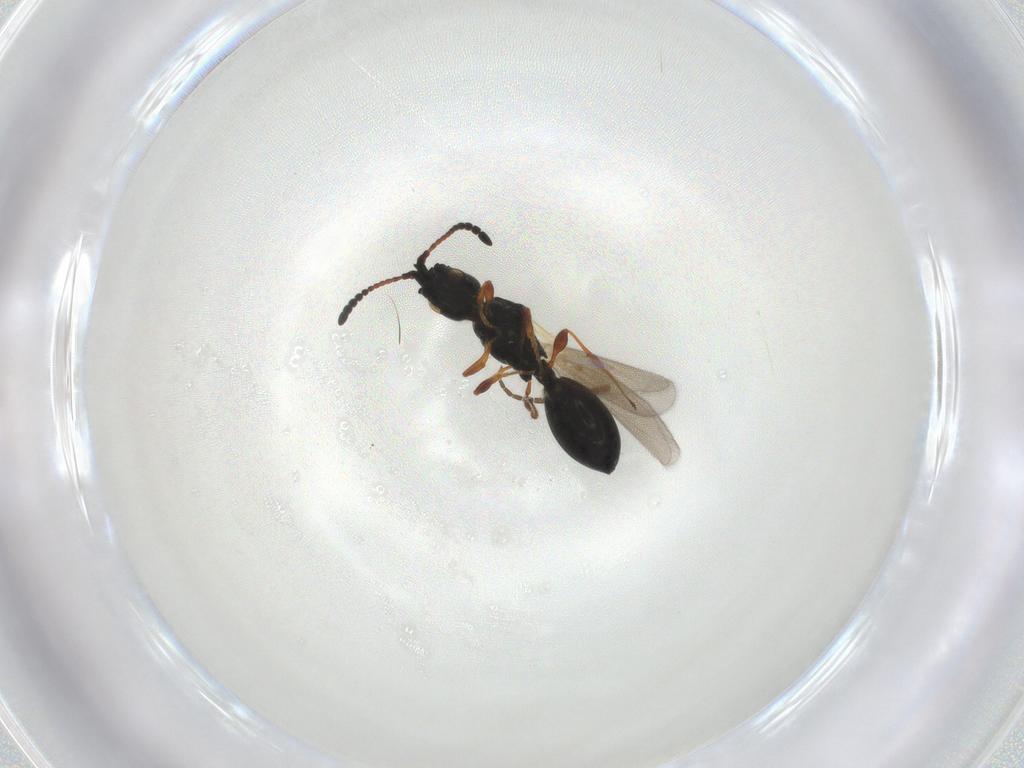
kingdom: Animalia
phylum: Arthropoda
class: Insecta
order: Hymenoptera
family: Diapriidae
